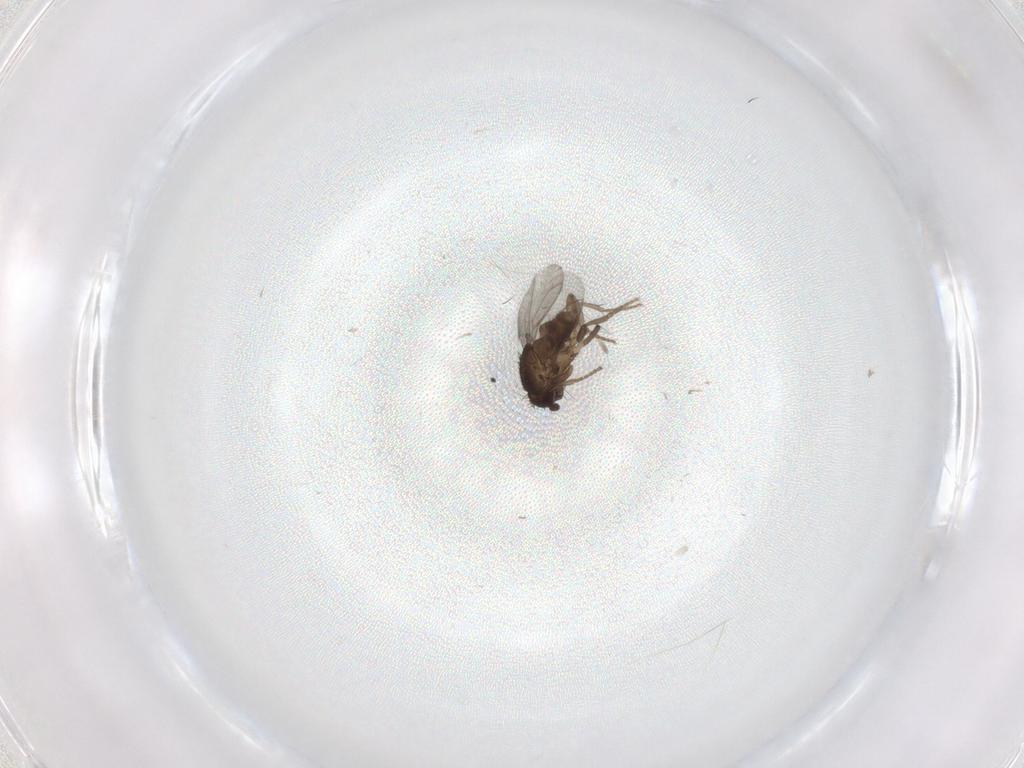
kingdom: Animalia
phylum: Arthropoda
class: Insecta
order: Diptera
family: Sphaeroceridae
